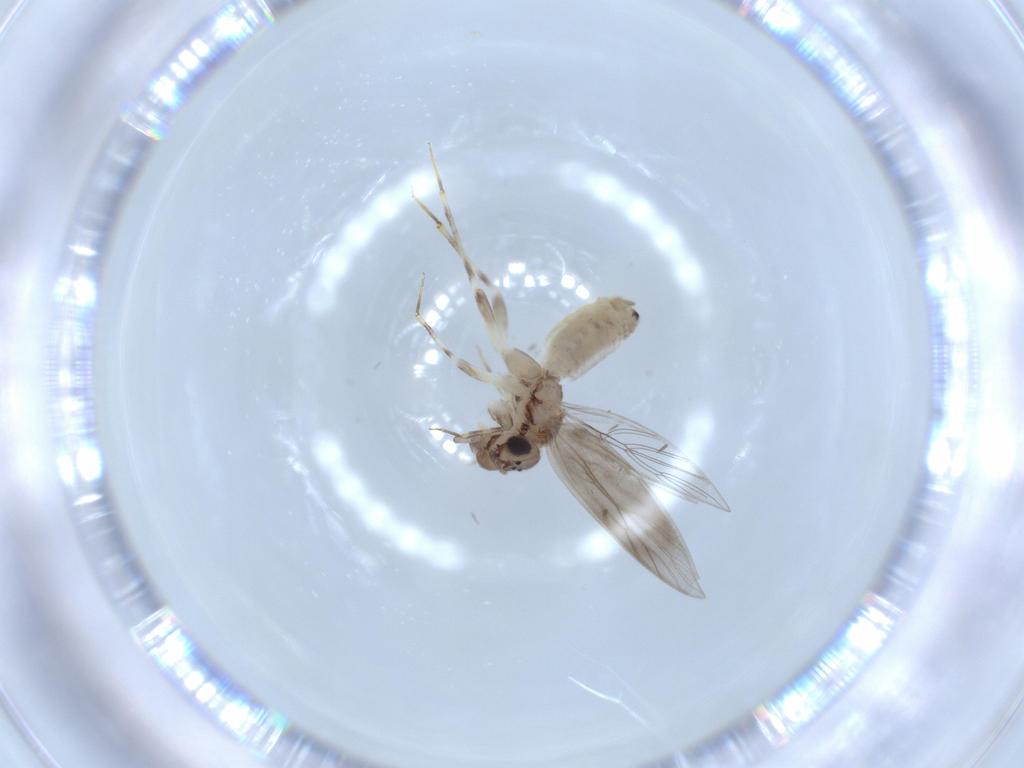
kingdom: Animalia
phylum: Arthropoda
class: Insecta
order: Psocodea
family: Lepidopsocidae
